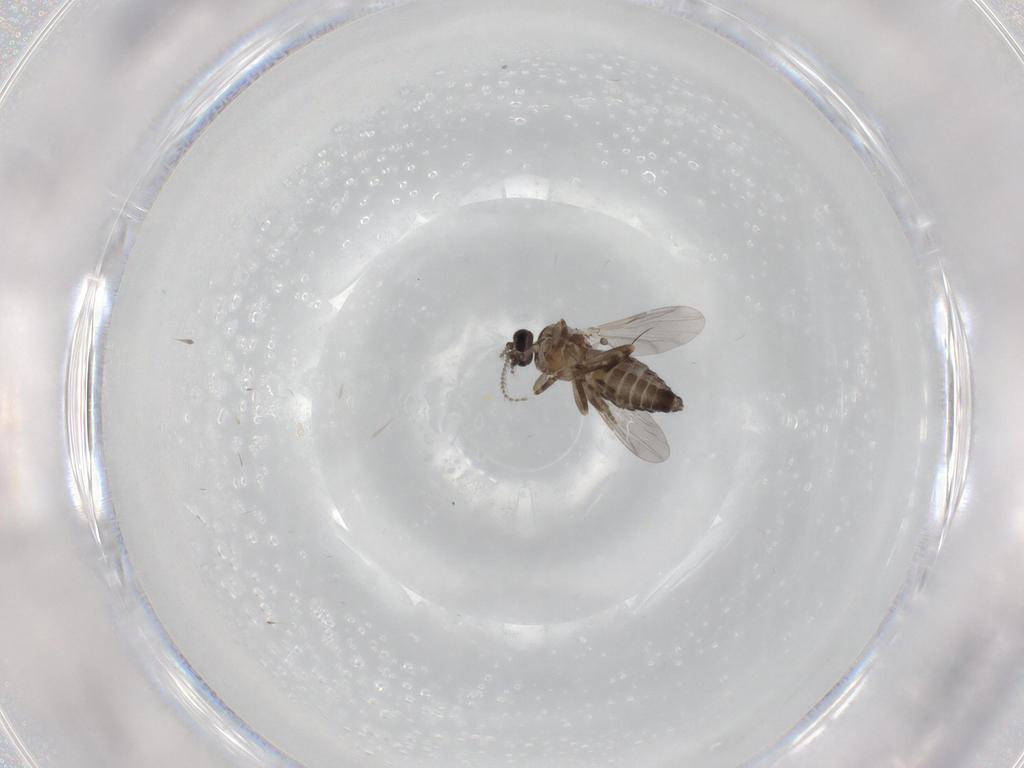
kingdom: Animalia
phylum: Arthropoda
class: Insecta
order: Diptera
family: Ceratopogonidae
